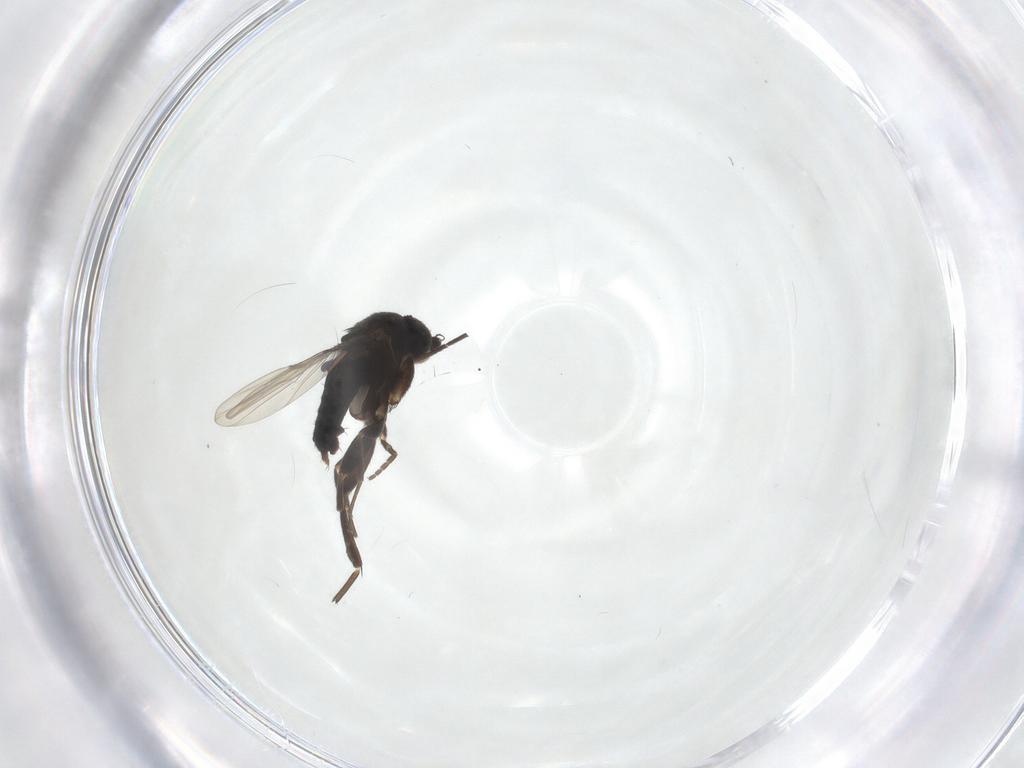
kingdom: Animalia
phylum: Arthropoda
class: Insecta
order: Diptera
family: Phoridae
